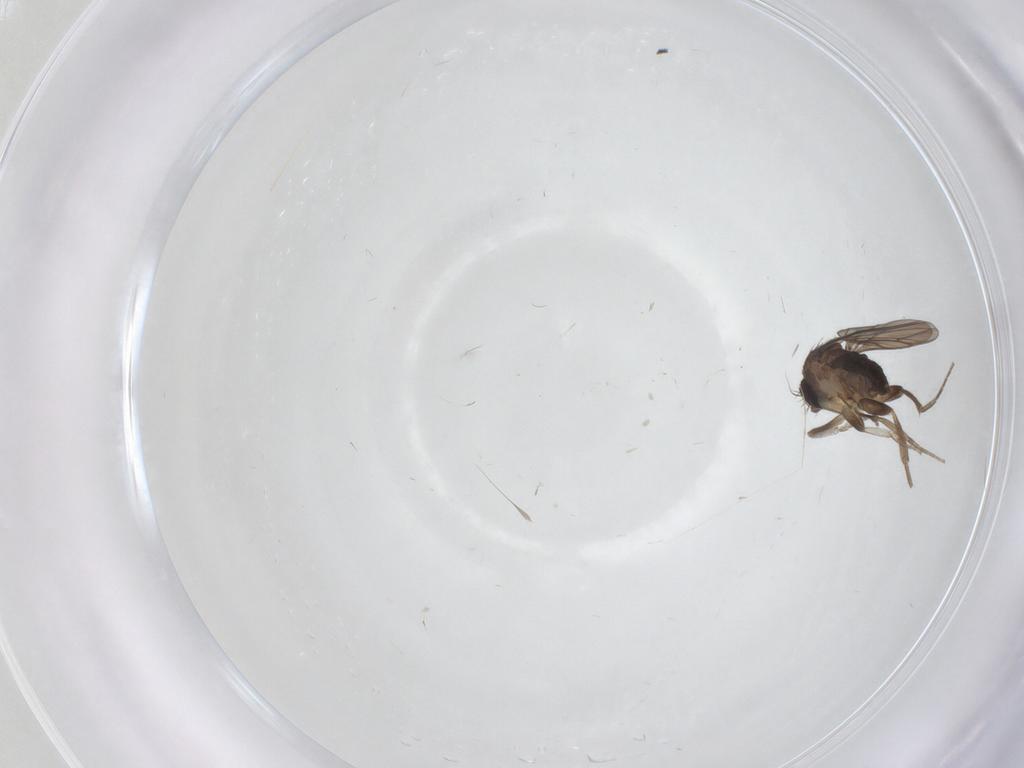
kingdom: Animalia
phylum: Arthropoda
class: Insecta
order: Diptera
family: Chironomidae
